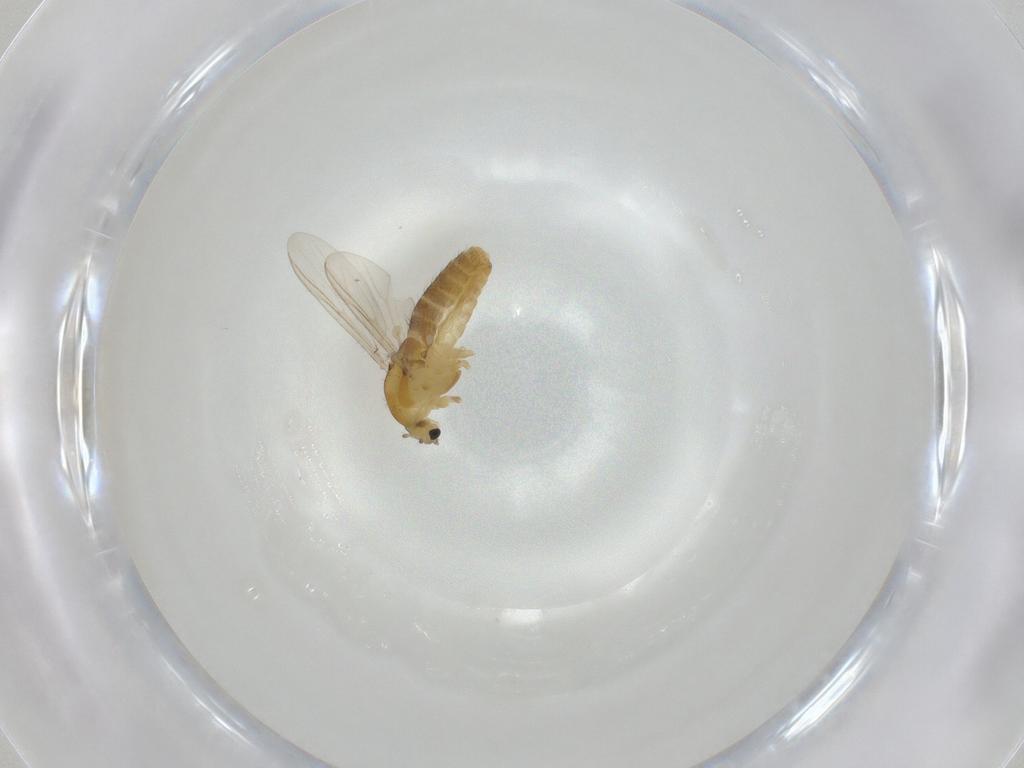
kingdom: Animalia
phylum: Arthropoda
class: Insecta
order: Diptera
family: Chironomidae
